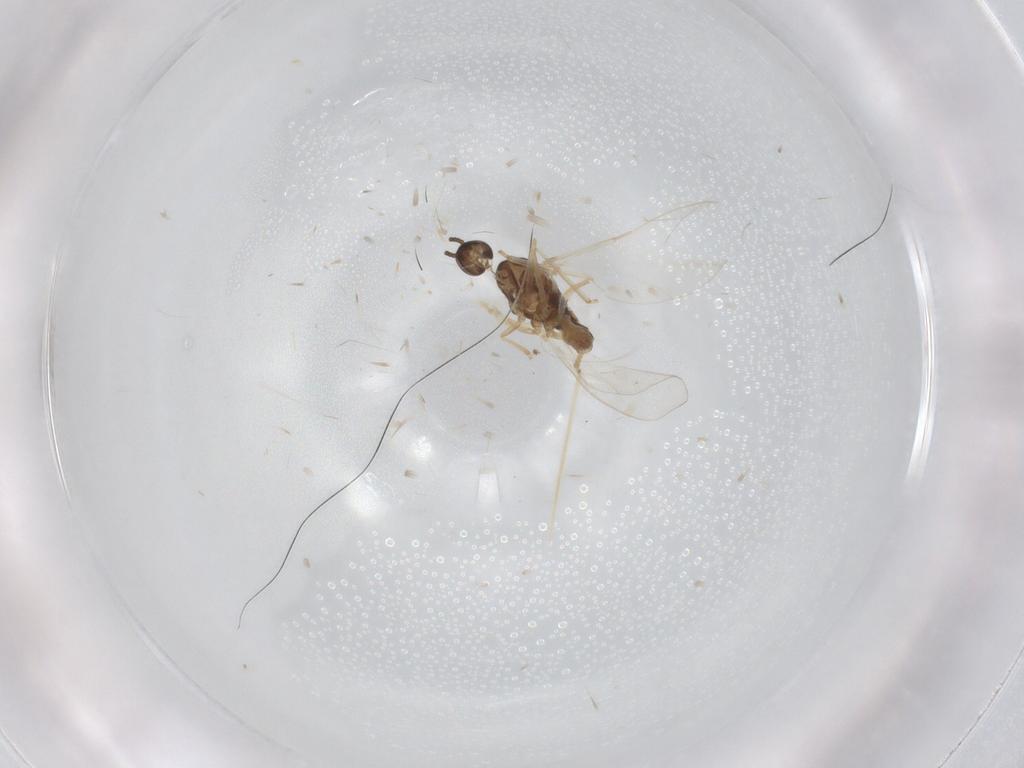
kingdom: Animalia
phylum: Arthropoda
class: Insecta
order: Diptera
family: Cecidomyiidae
